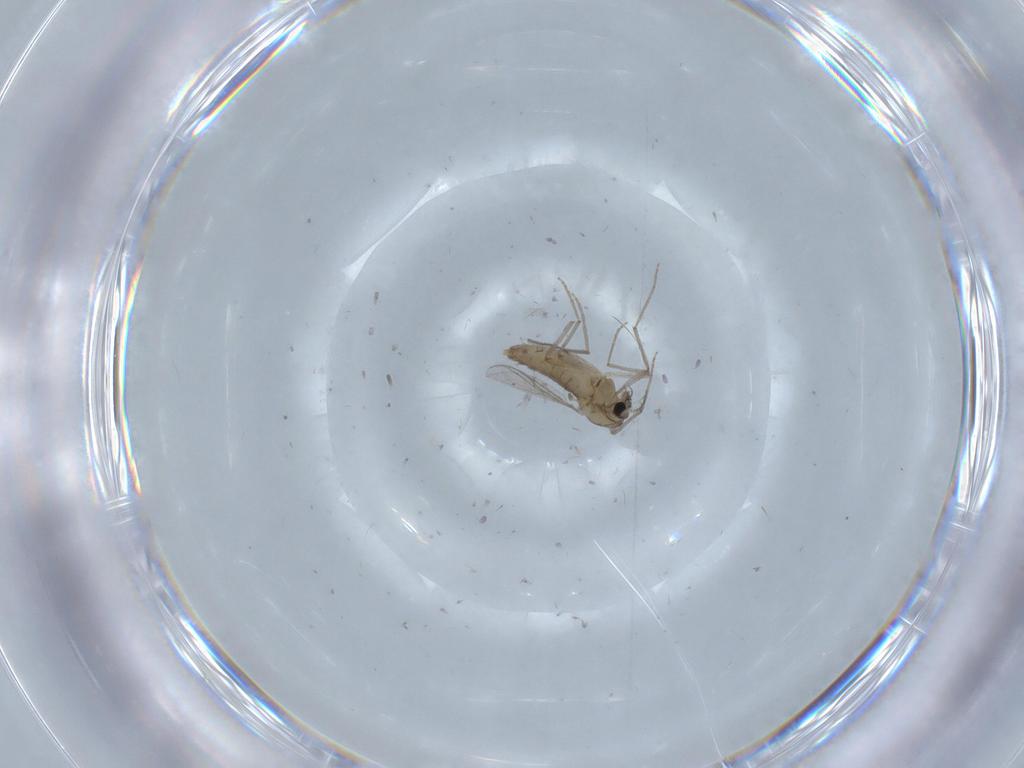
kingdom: Animalia
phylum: Arthropoda
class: Insecta
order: Diptera
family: Chironomidae
